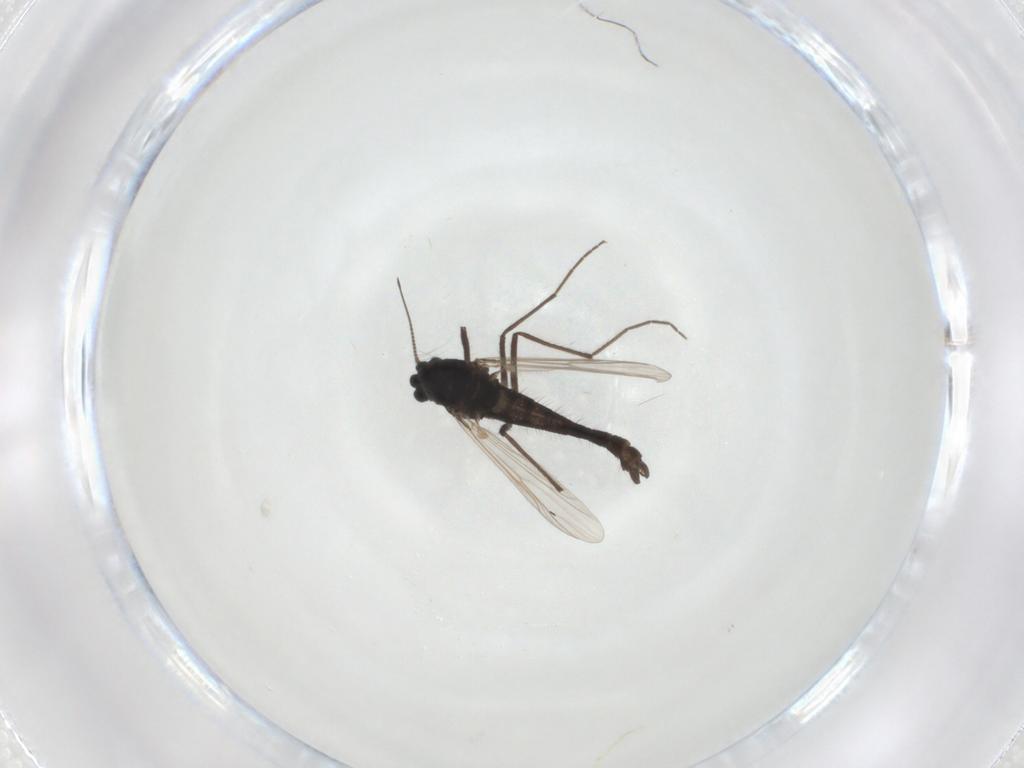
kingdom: Animalia
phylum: Arthropoda
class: Insecta
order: Diptera
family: Chironomidae
